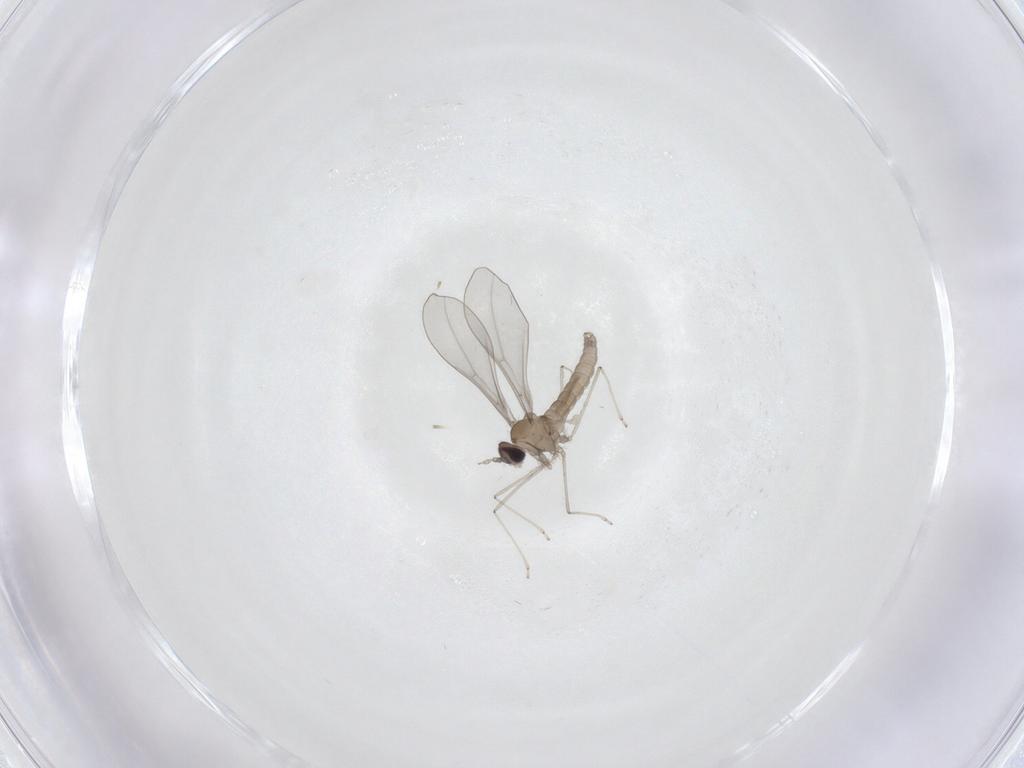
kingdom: Animalia
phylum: Arthropoda
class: Insecta
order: Diptera
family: Cecidomyiidae
